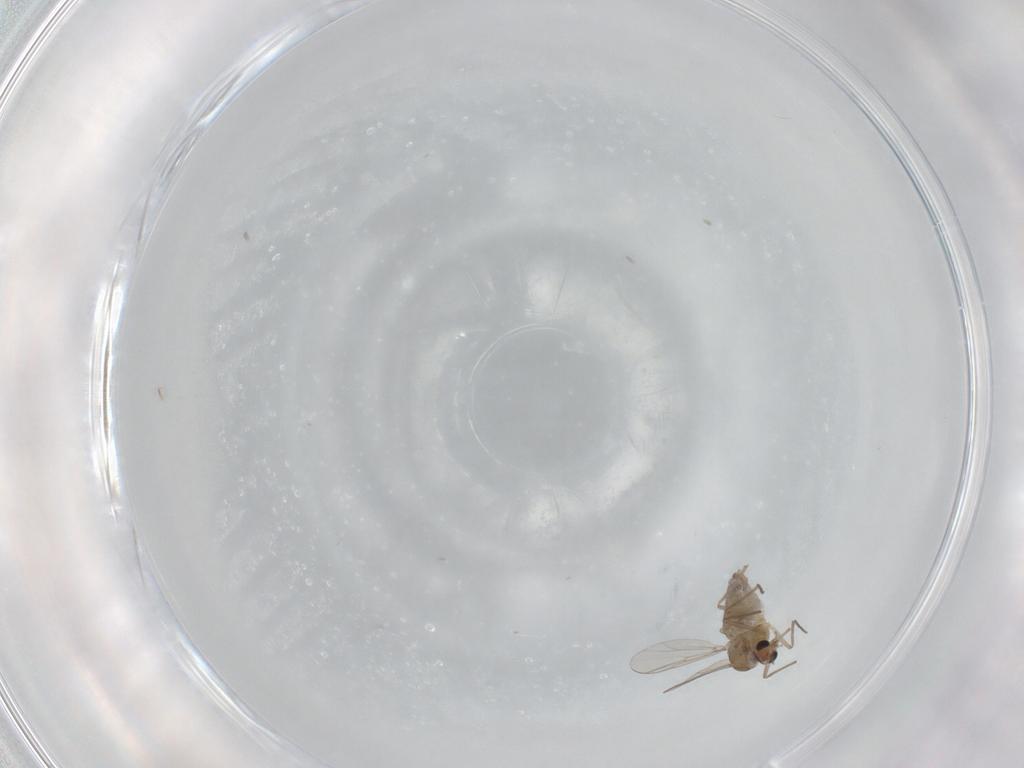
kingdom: Animalia
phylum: Arthropoda
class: Insecta
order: Diptera
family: Chironomidae
